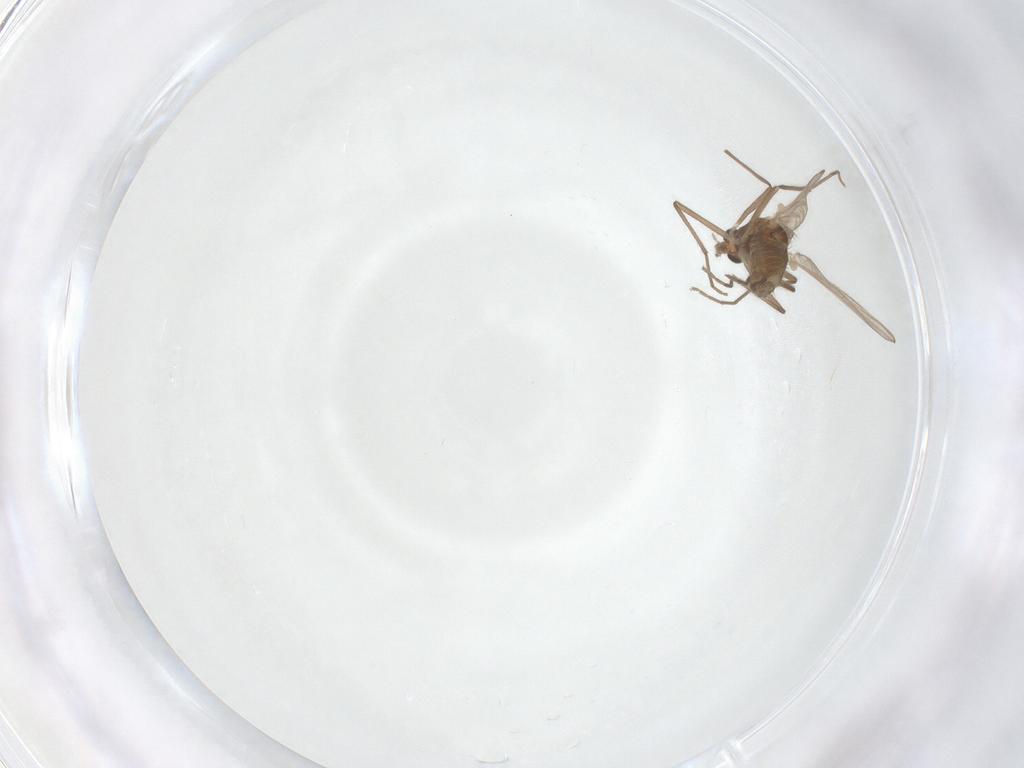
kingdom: Animalia
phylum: Arthropoda
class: Insecta
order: Diptera
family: Chironomidae
